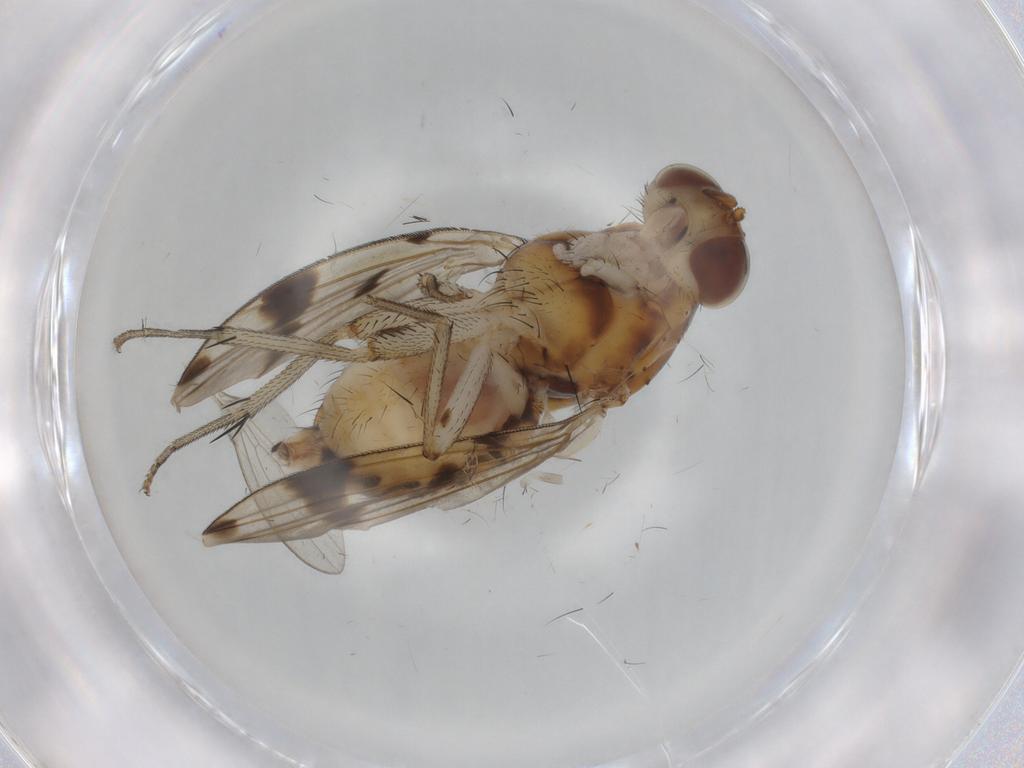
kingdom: Animalia
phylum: Arthropoda
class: Insecta
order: Diptera
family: Lauxaniidae
